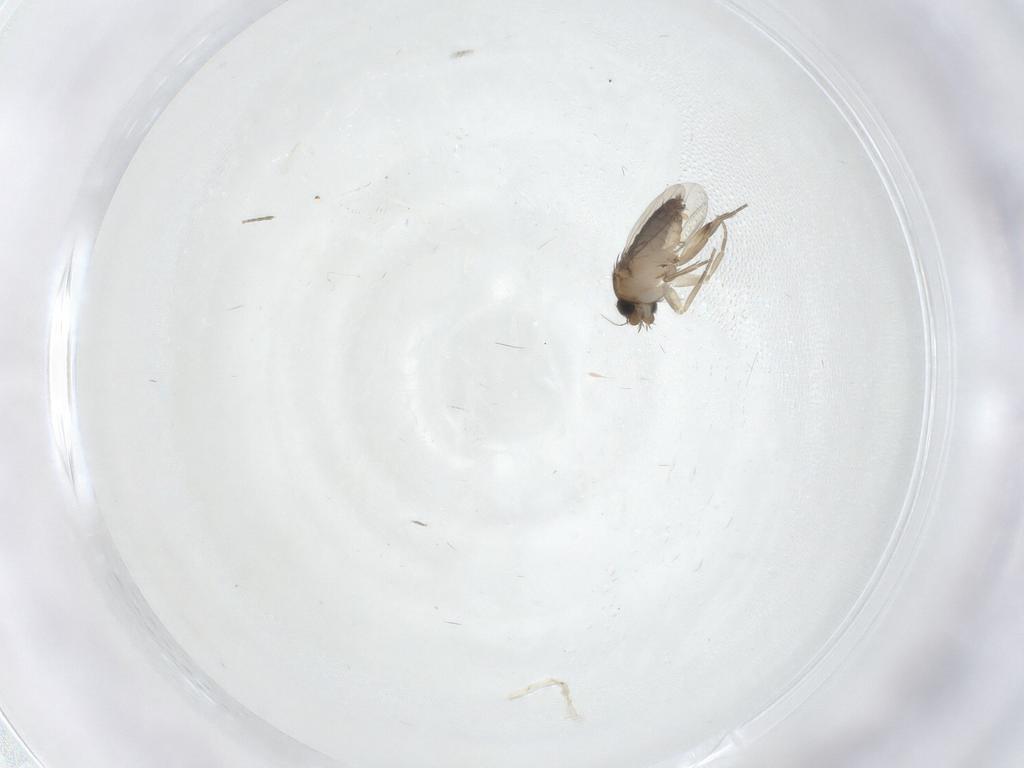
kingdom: Animalia
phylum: Arthropoda
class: Insecta
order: Diptera
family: Phoridae
